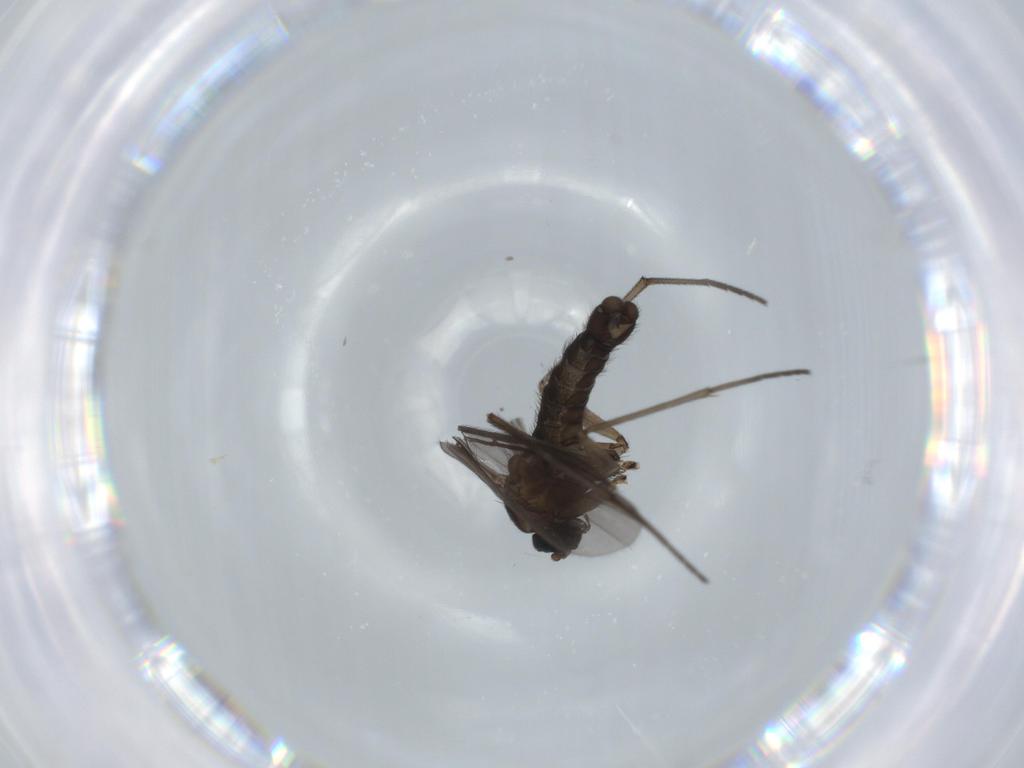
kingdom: Animalia
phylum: Arthropoda
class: Insecta
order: Diptera
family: Sciaridae
